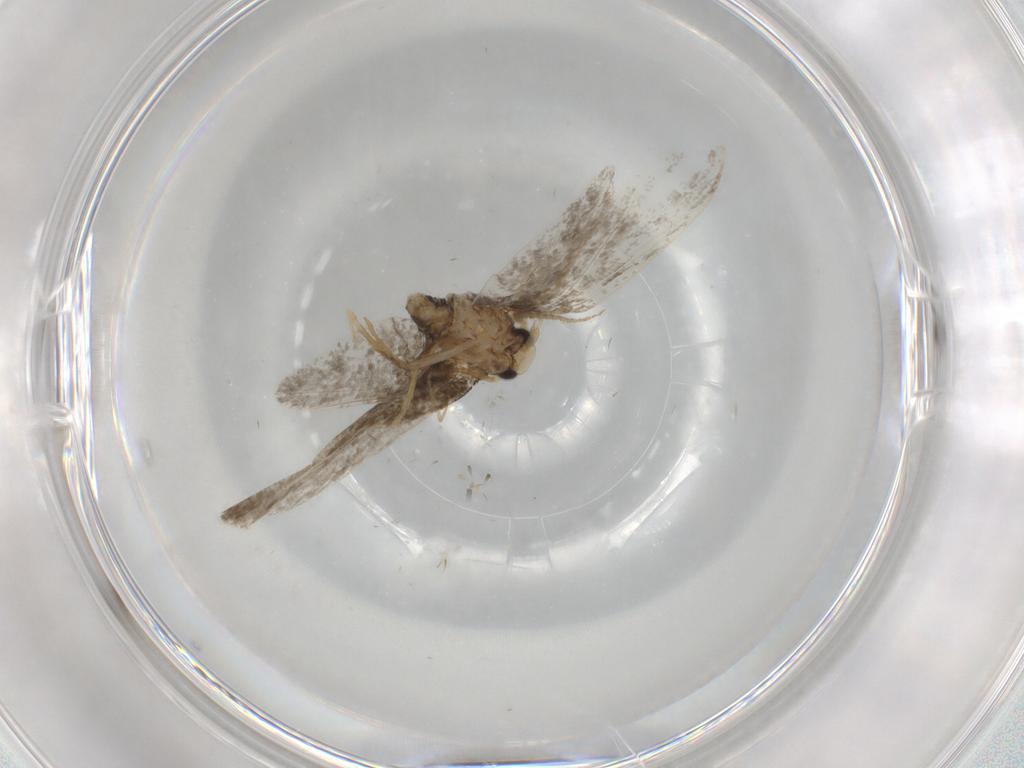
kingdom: Animalia
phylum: Arthropoda
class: Insecta
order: Lepidoptera
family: Psychidae
